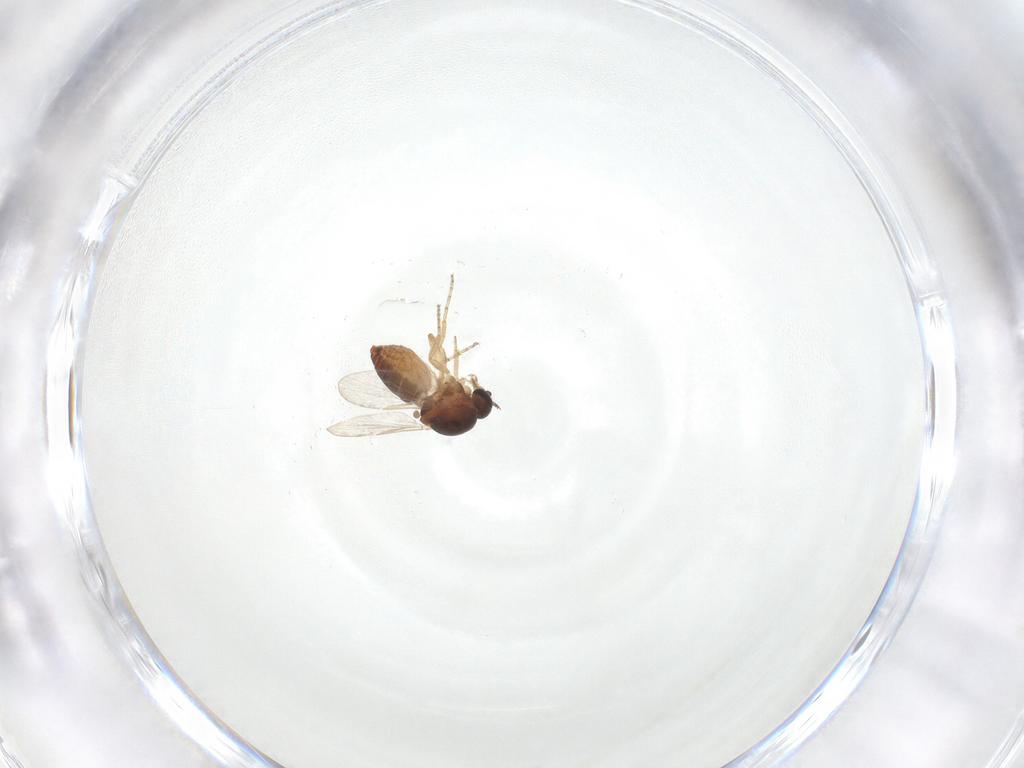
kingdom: Animalia
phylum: Arthropoda
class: Insecta
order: Diptera
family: Ceratopogonidae
